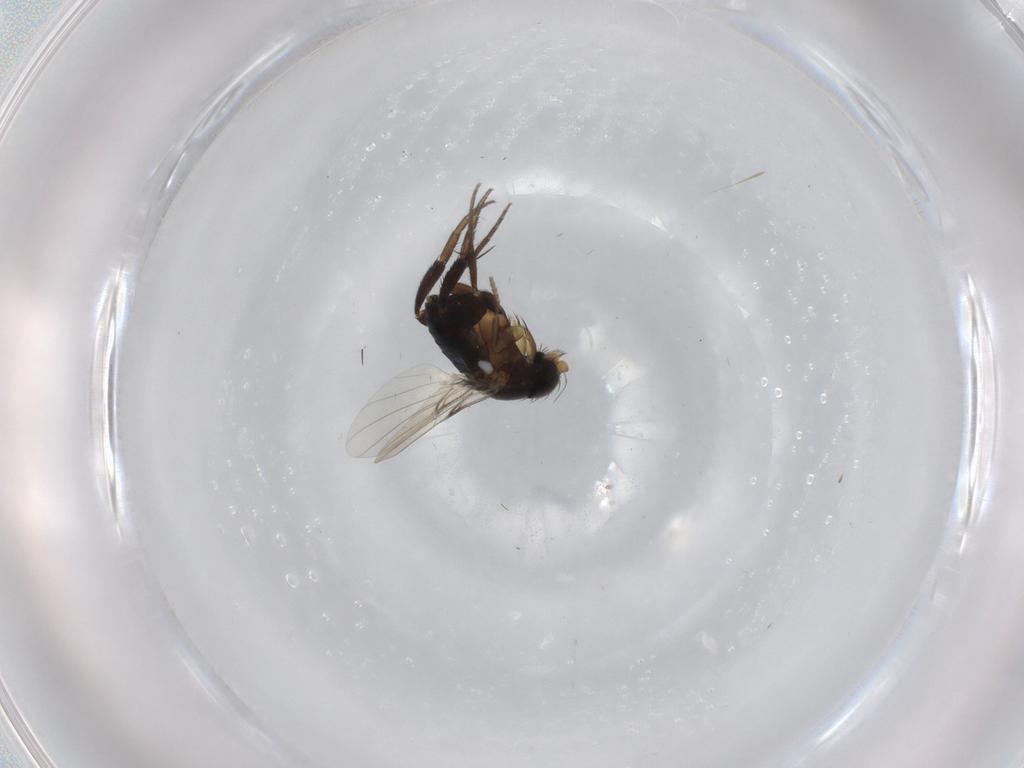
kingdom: Animalia
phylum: Arthropoda
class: Insecta
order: Diptera
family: Phoridae
